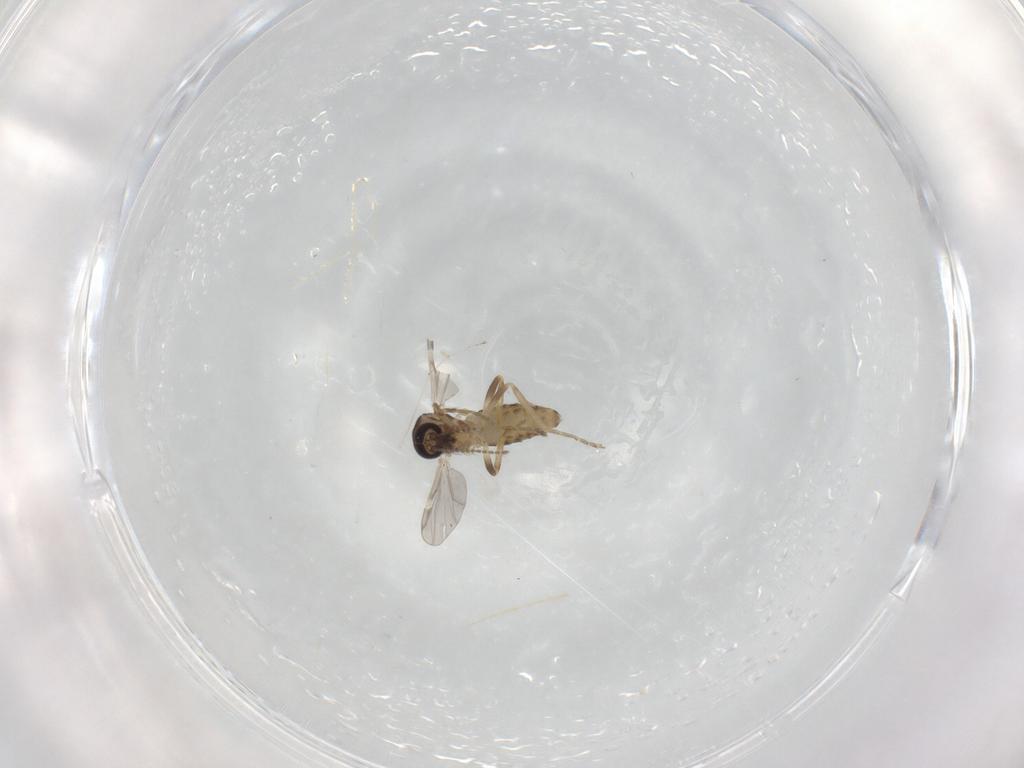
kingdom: Animalia
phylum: Arthropoda
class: Insecta
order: Diptera
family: Ceratopogonidae
